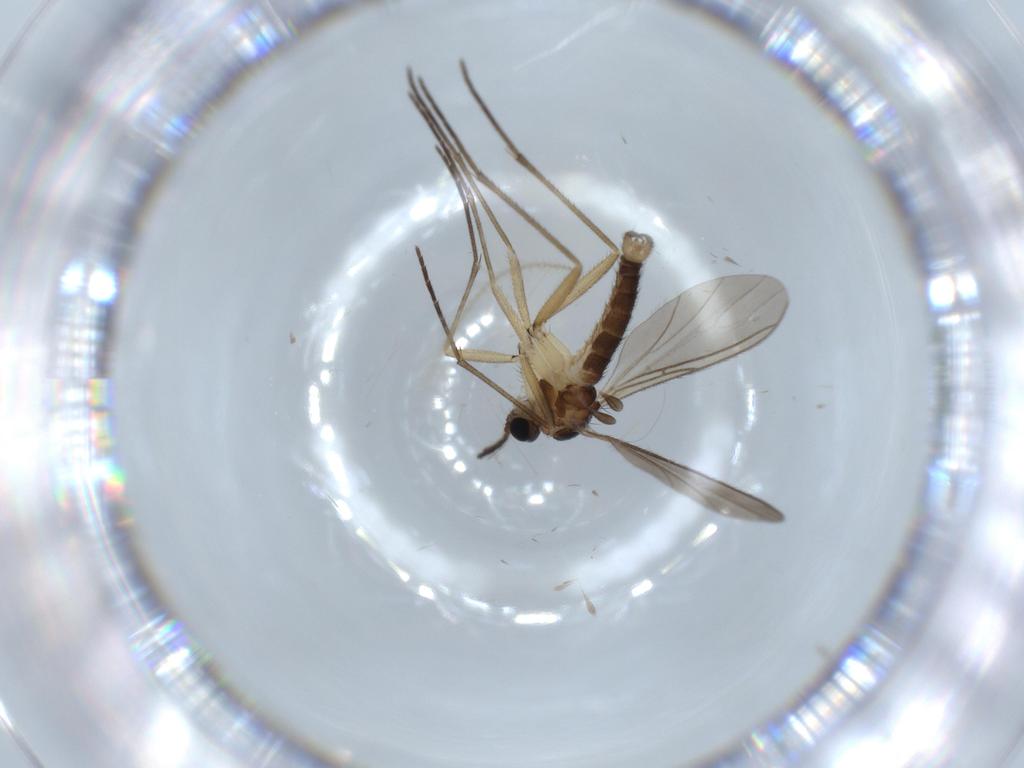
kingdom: Animalia
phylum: Arthropoda
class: Insecta
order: Diptera
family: Sciaridae
